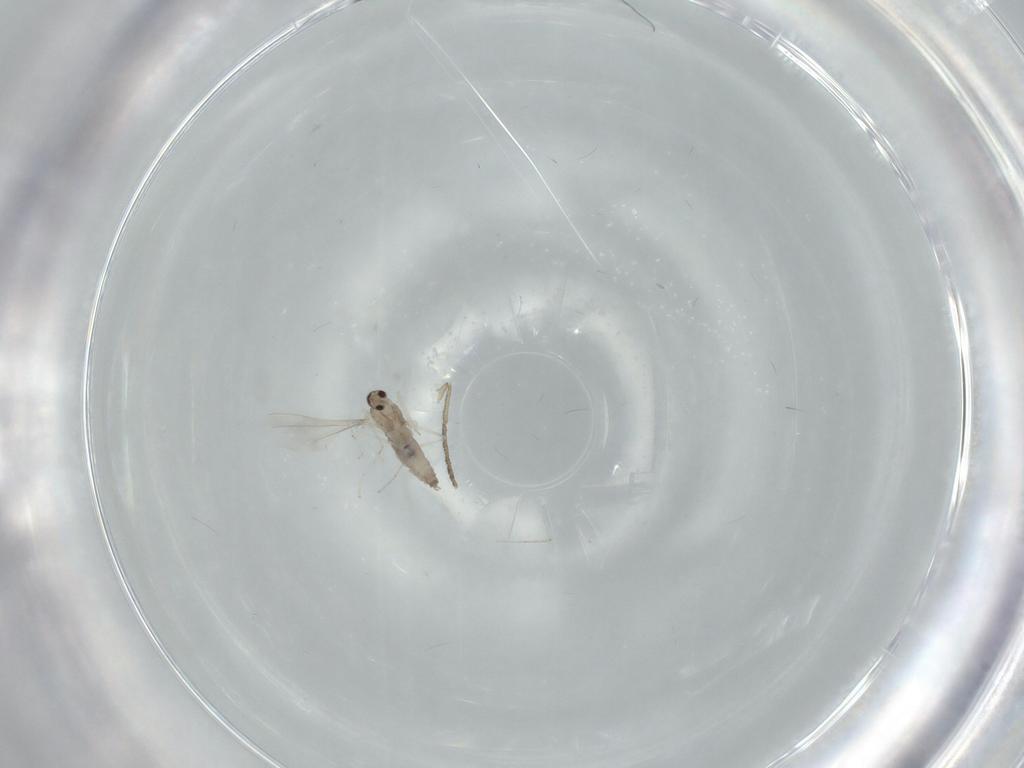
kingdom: Animalia
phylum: Arthropoda
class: Insecta
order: Diptera
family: Cecidomyiidae
